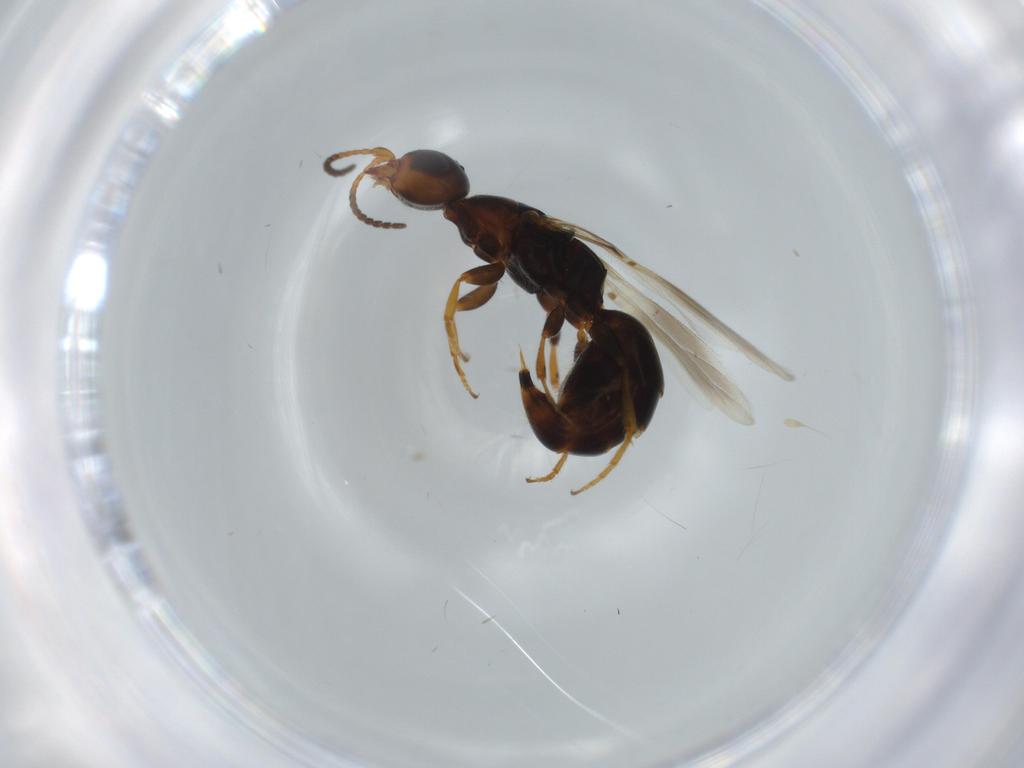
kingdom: Animalia
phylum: Arthropoda
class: Insecta
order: Hymenoptera
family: Bethylidae
